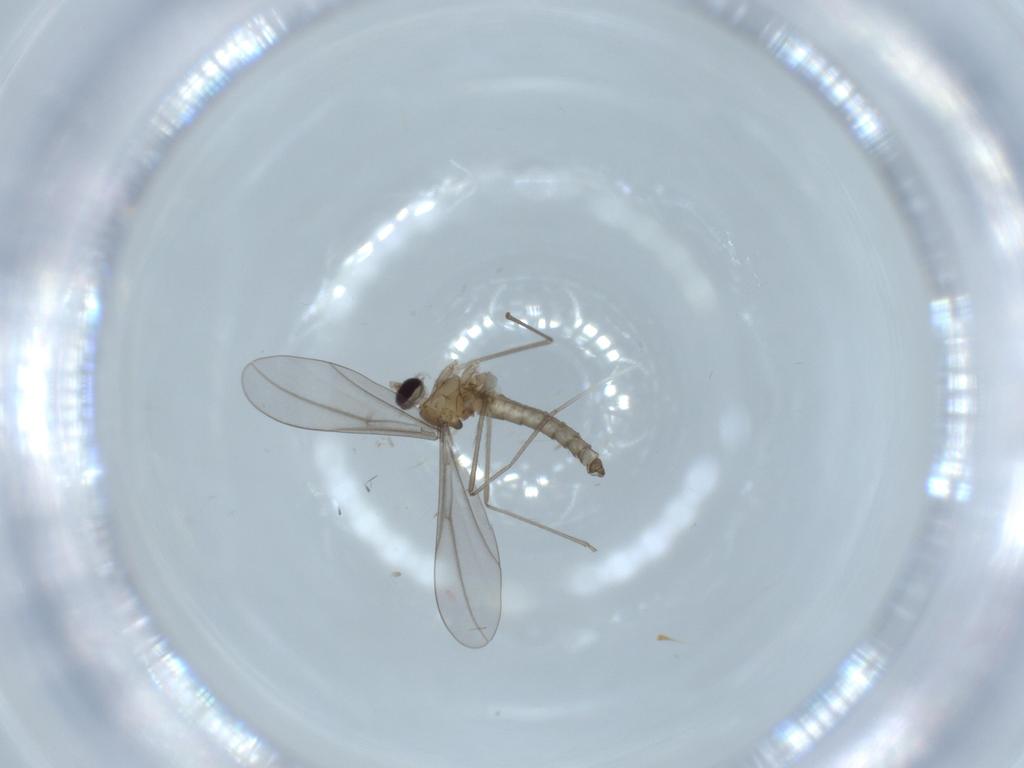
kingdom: Animalia
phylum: Arthropoda
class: Insecta
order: Diptera
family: Cecidomyiidae
